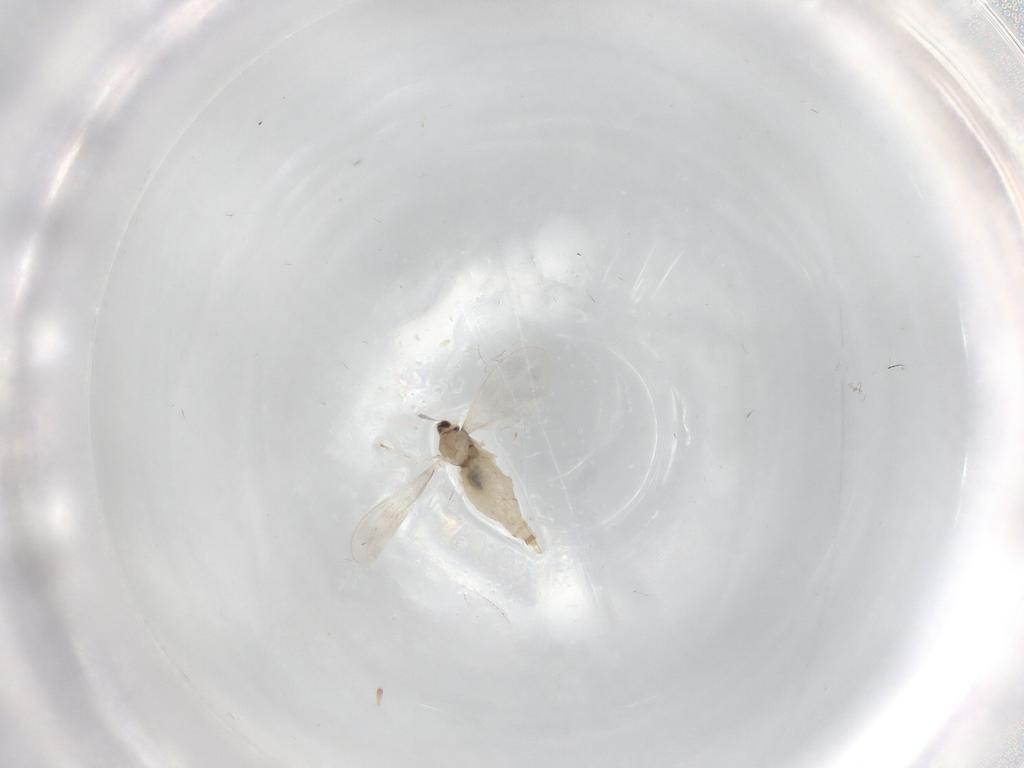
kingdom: Animalia
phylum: Arthropoda
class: Insecta
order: Diptera
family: Cecidomyiidae
